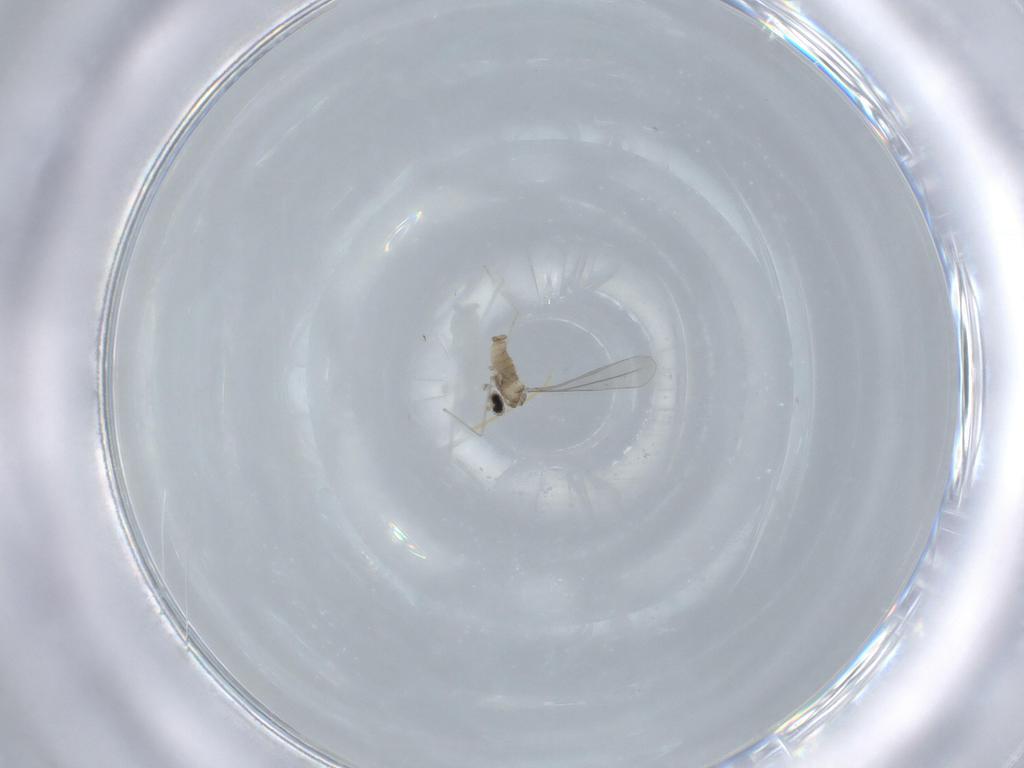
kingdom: Animalia
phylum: Arthropoda
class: Insecta
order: Diptera
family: Cecidomyiidae
